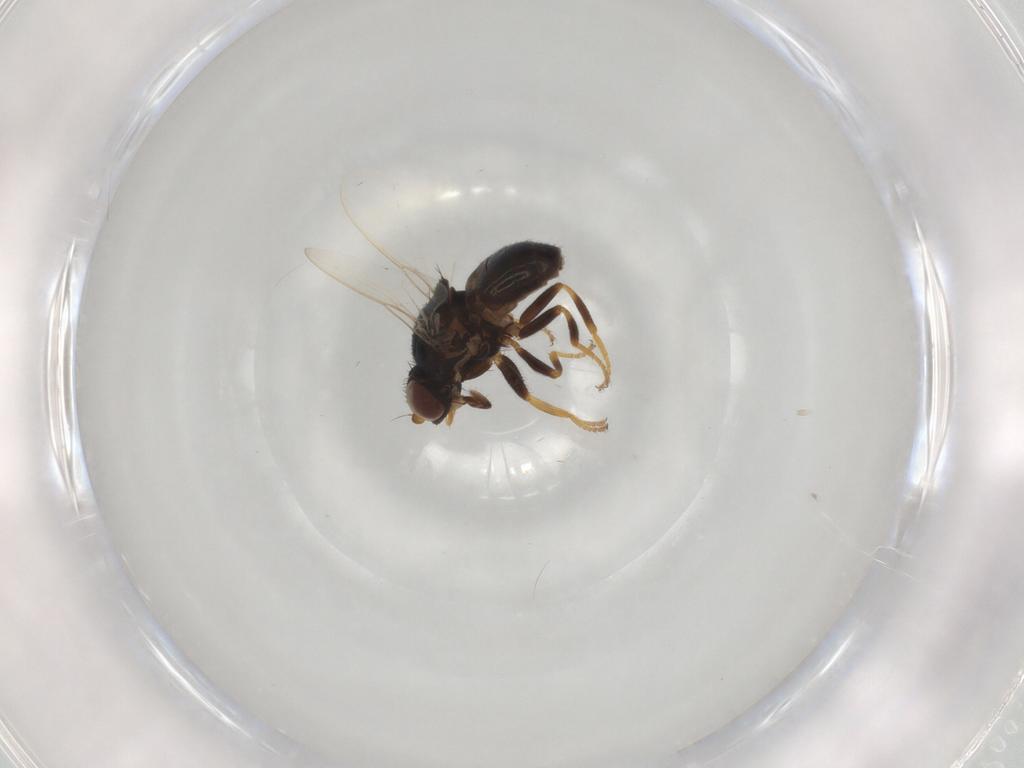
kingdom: Animalia
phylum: Arthropoda
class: Insecta
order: Diptera
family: Chloropidae
